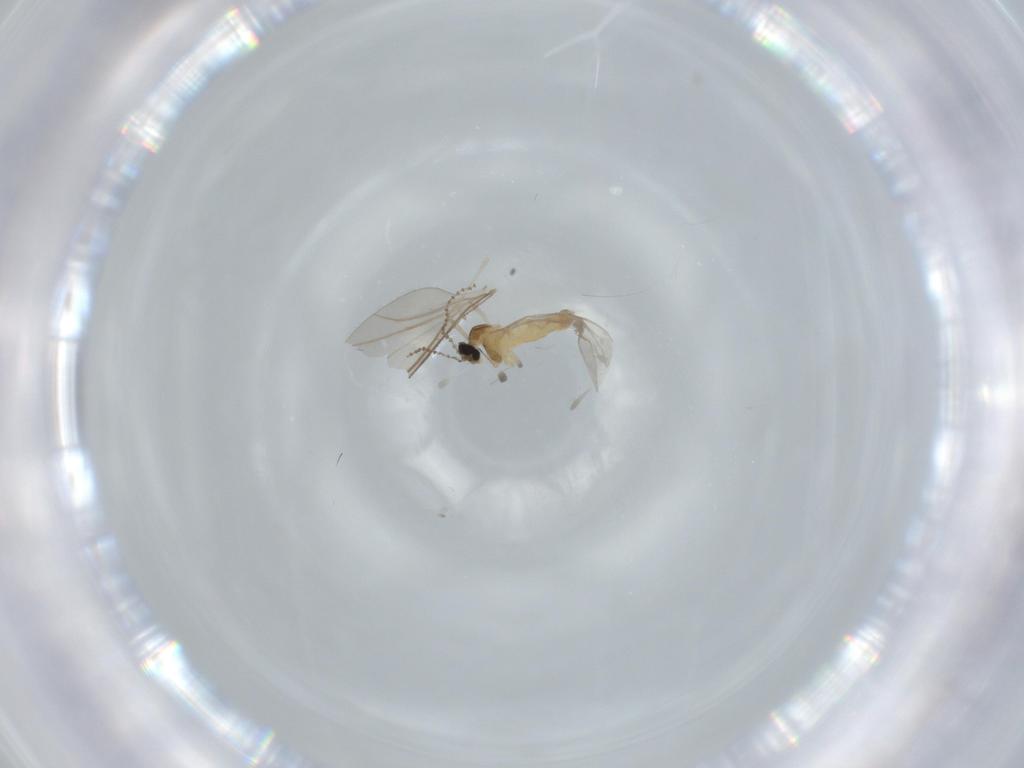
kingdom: Animalia
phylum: Arthropoda
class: Insecta
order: Diptera
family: Cecidomyiidae
